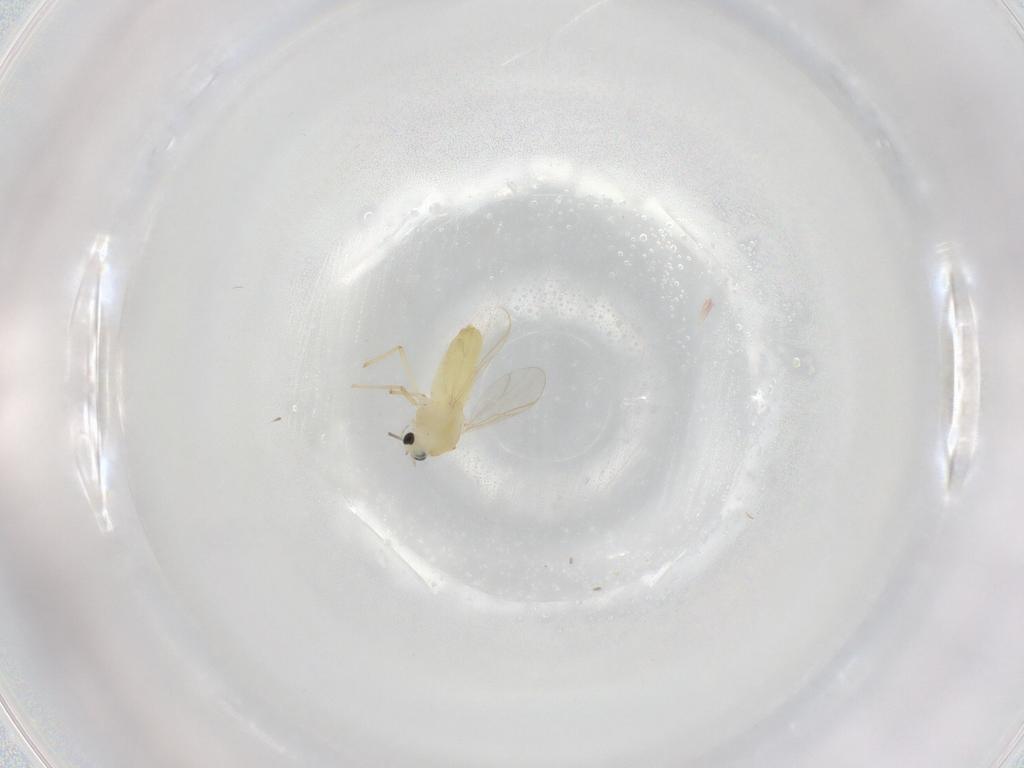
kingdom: Animalia
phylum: Arthropoda
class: Insecta
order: Diptera
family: Chironomidae
